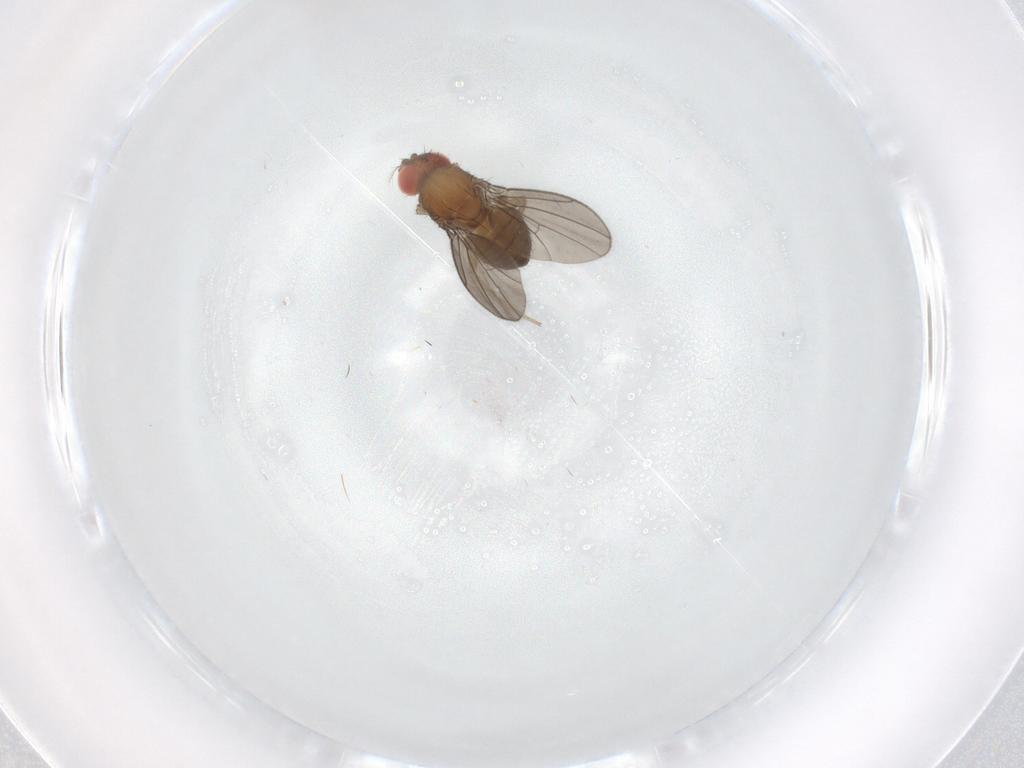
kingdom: Animalia
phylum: Arthropoda
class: Insecta
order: Diptera
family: Drosophilidae
